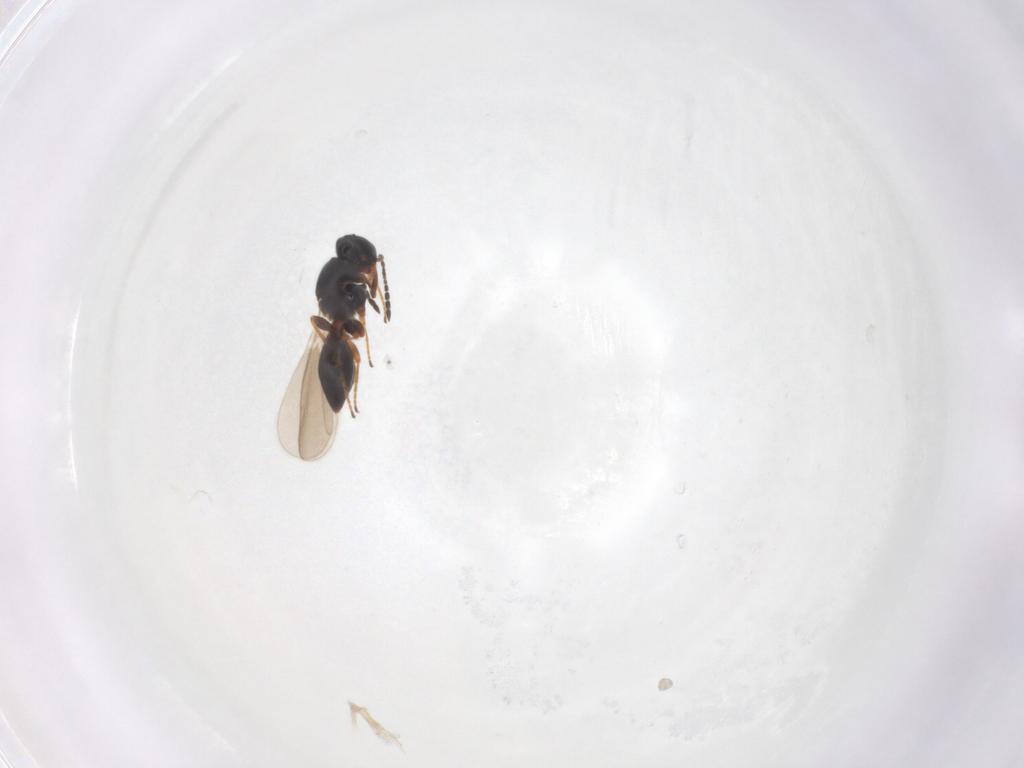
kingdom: Animalia
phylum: Arthropoda
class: Insecta
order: Hymenoptera
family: Platygastridae
